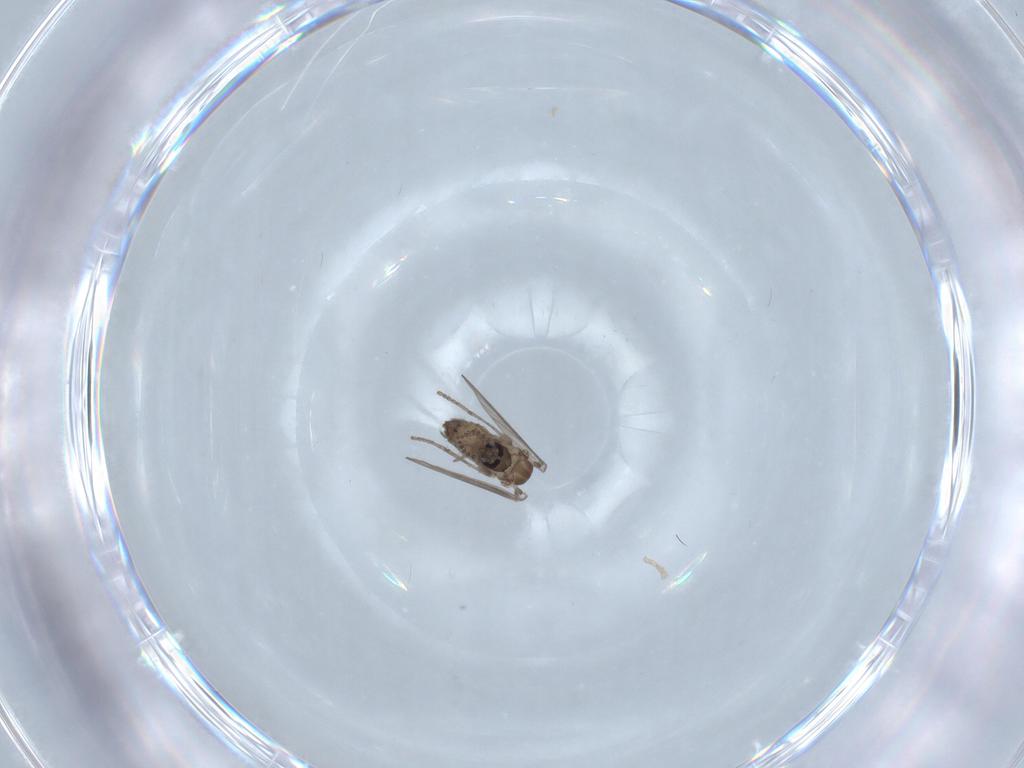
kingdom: Animalia
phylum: Arthropoda
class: Insecta
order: Diptera
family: Psychodidae
